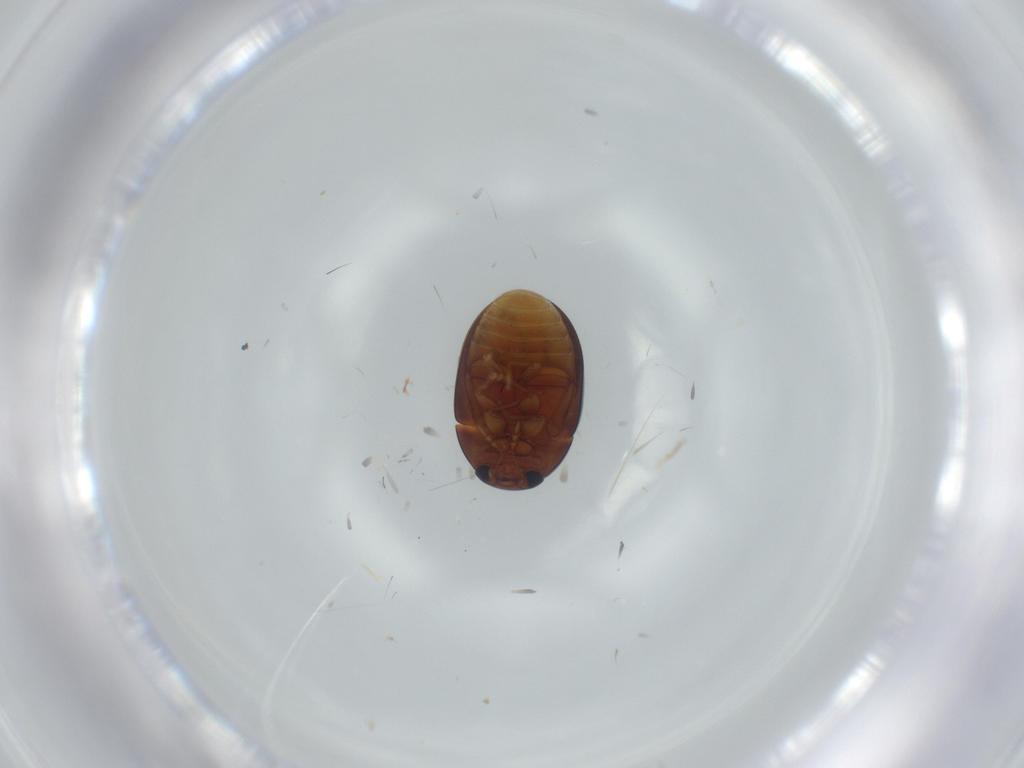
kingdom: Animalia
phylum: Arthropoda
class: Insecta
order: Coleoptera
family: Phalacridae
